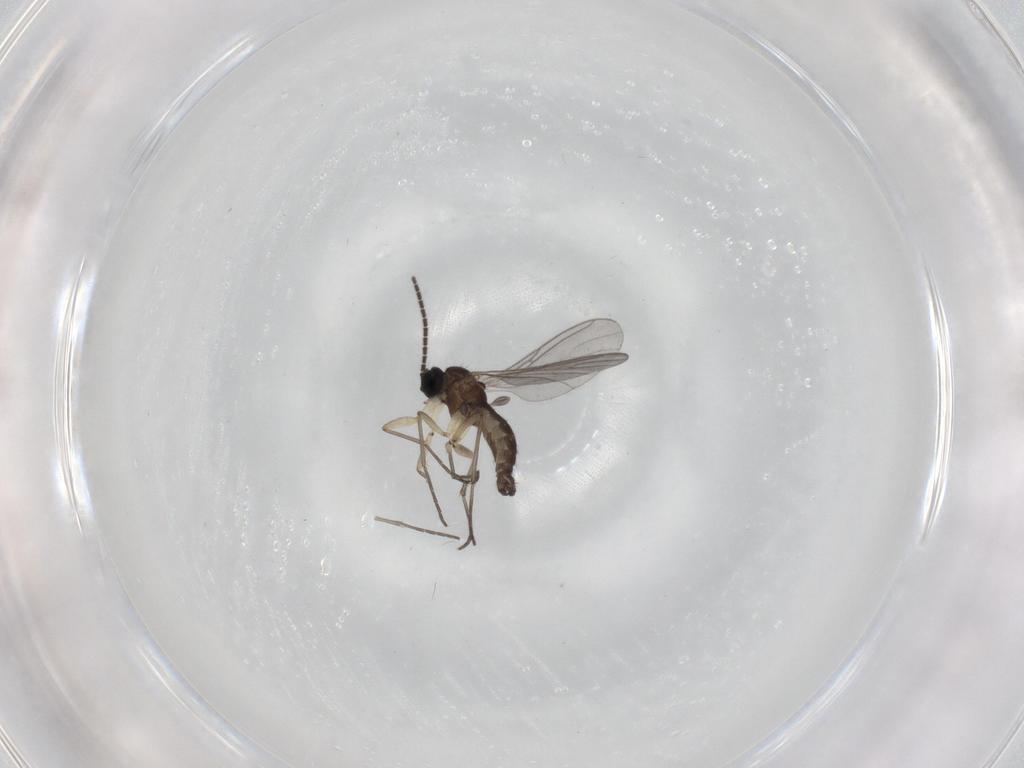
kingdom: Animalia
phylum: Arthropoda
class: Insecta
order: Diptera
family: Sciaridae
